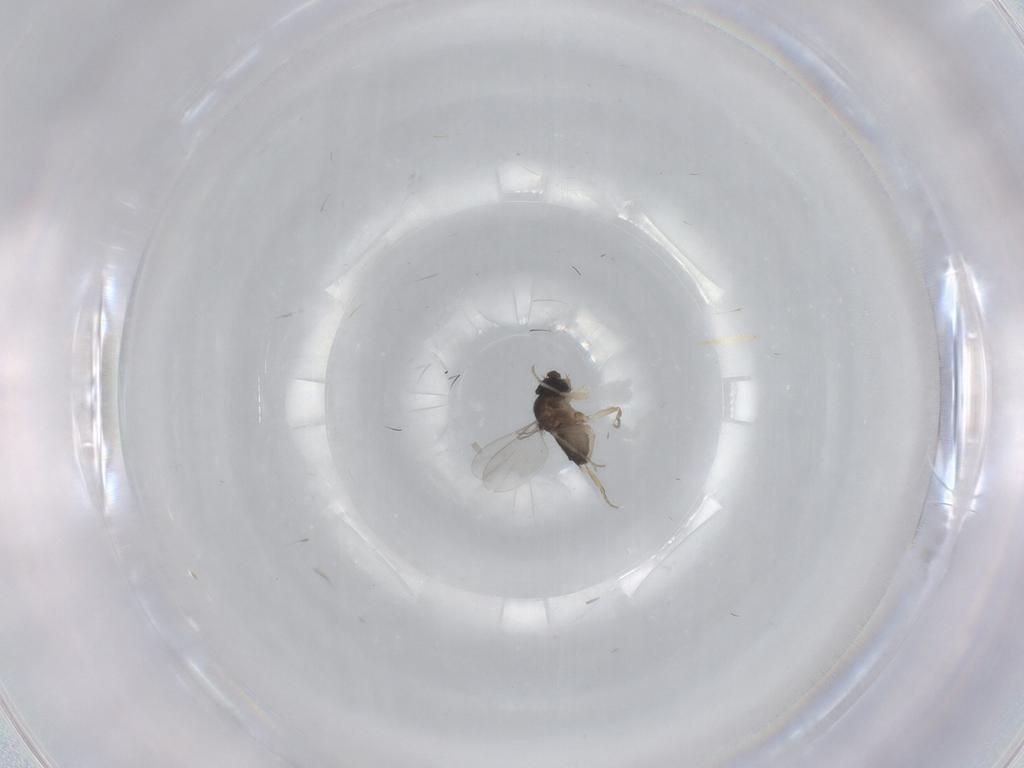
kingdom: Animalia
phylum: Arthropoda
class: Insecta
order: Diptera
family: Phoridae
